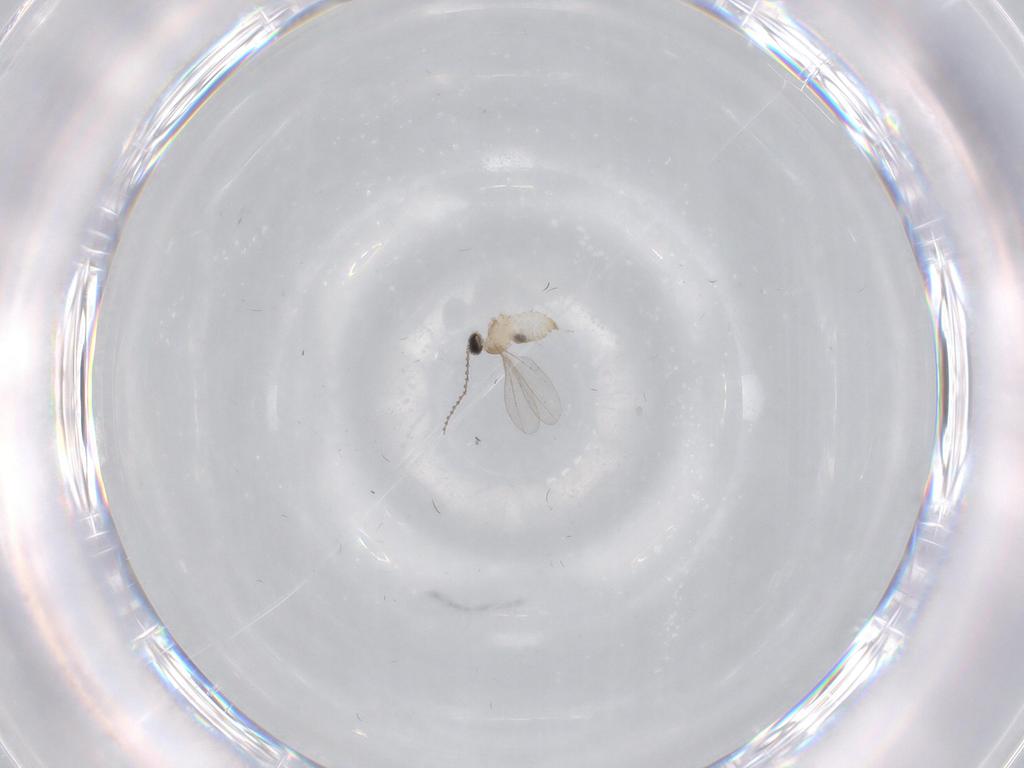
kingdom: Animalia
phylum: Arthropoda
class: Insecta
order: Diptera
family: Cecidomyiidae
